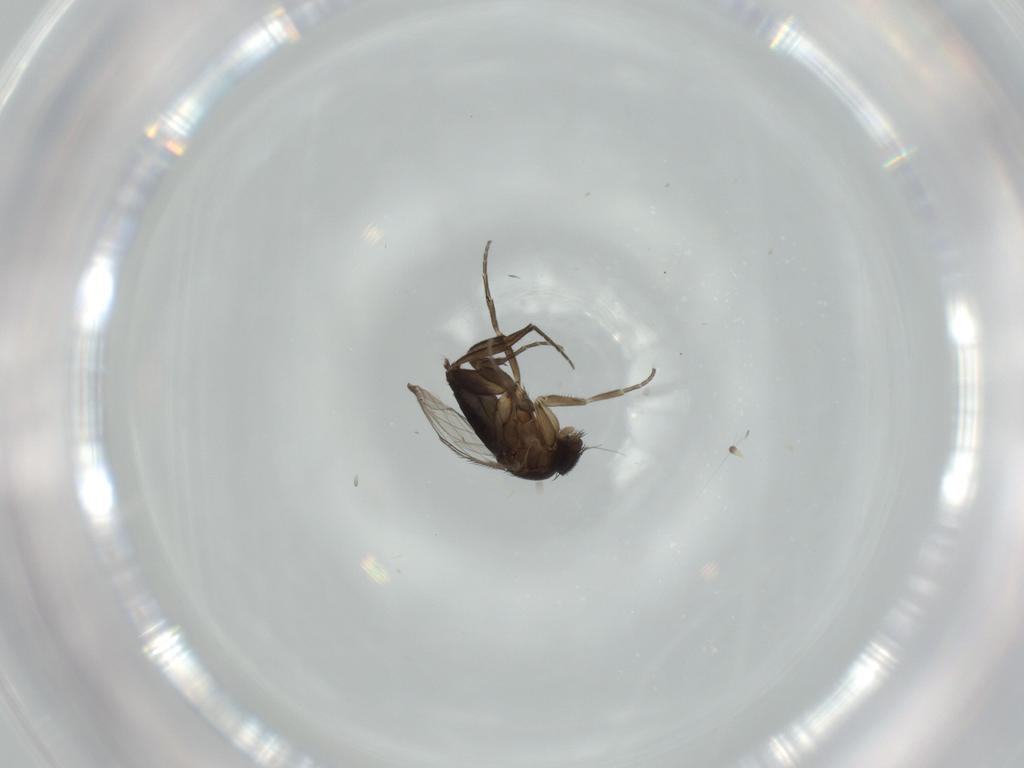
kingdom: Animalia
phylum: Arthropoda
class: Insecta
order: Diptera
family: Phoridae
